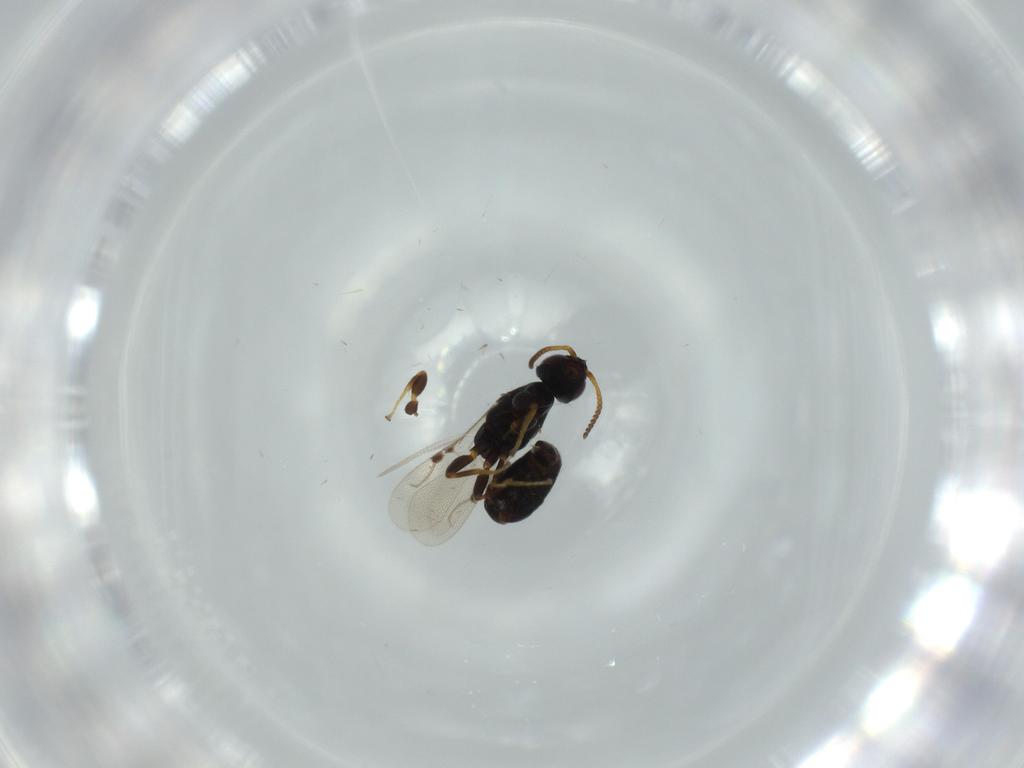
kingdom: Animalia
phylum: Arthropoda
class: Insecta
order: Hymenoptera
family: Bethylidae
